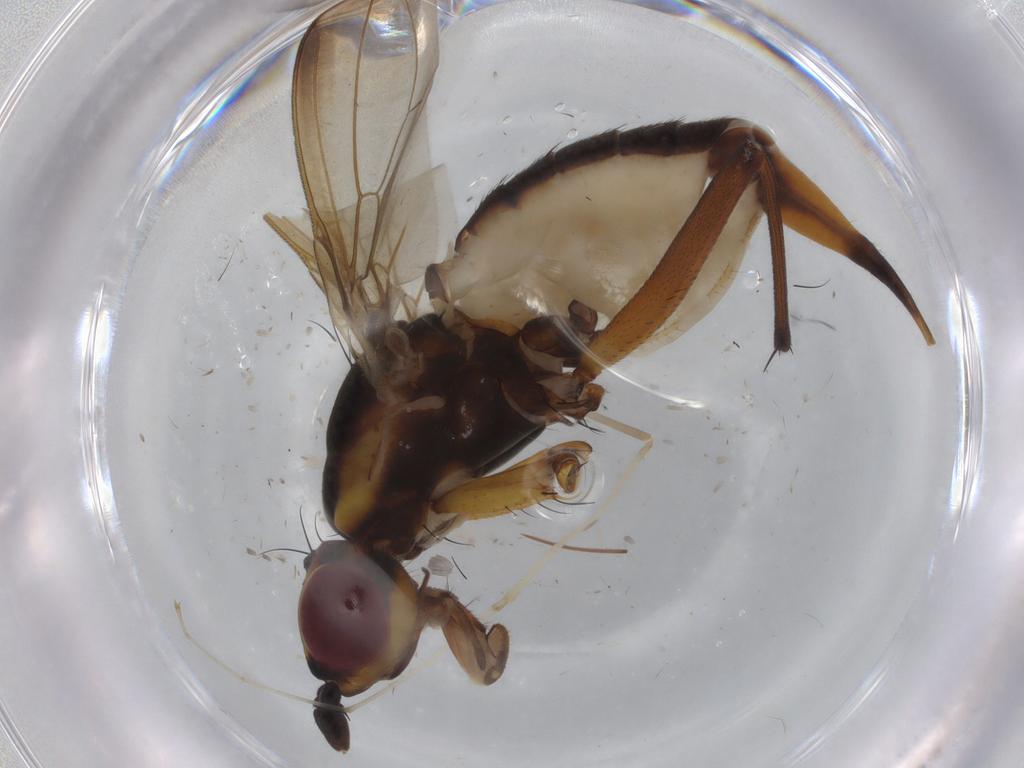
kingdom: Animalia
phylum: Arthropoda
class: Insecta
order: Diptera
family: Neriidae
